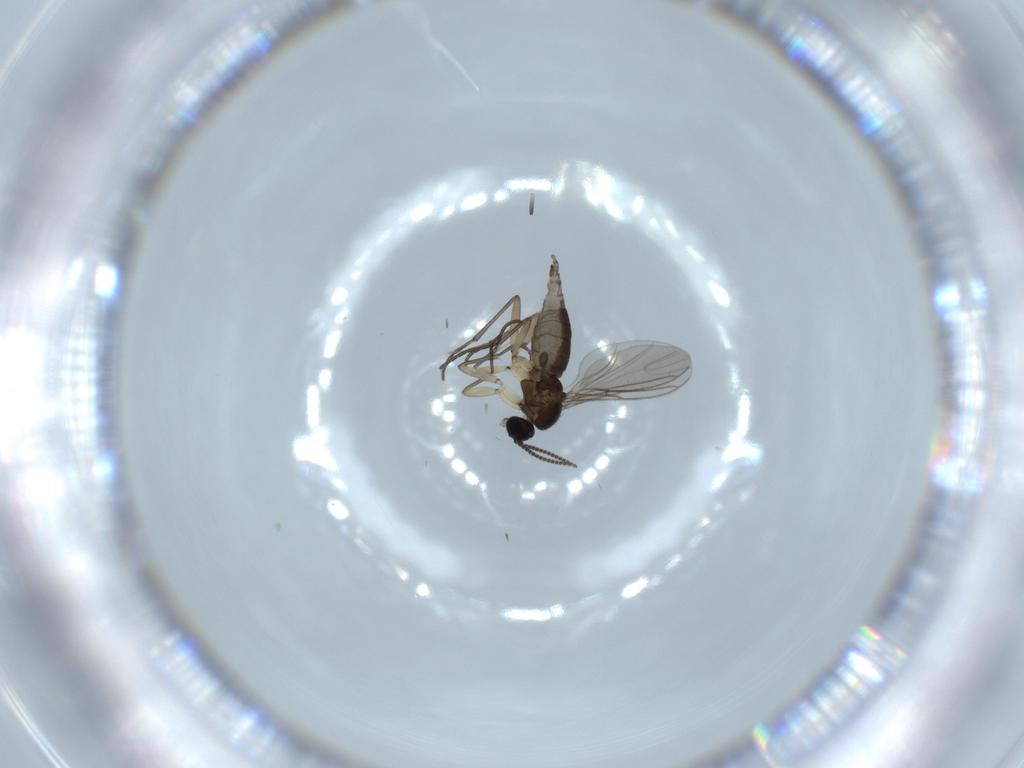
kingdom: Animalia
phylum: Arthropoda
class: Insecta
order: Diptera
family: Sciaridae
